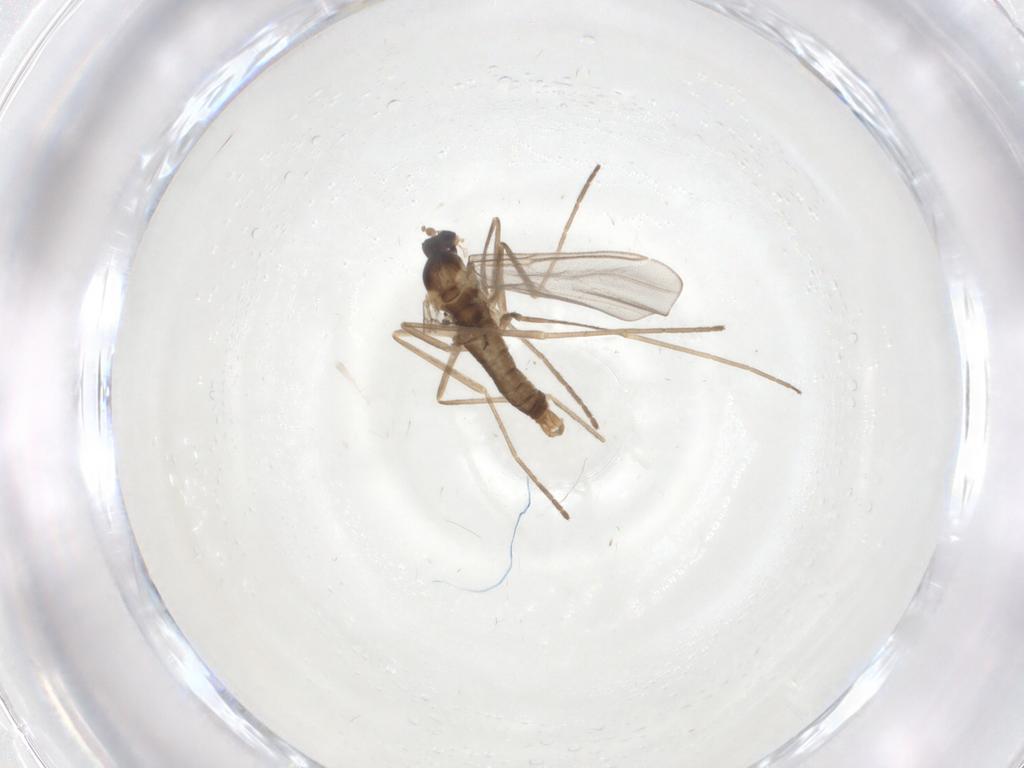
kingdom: Animalia
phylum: Arthropoda
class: Insecta
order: Diptera
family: Cecidomyiidae
